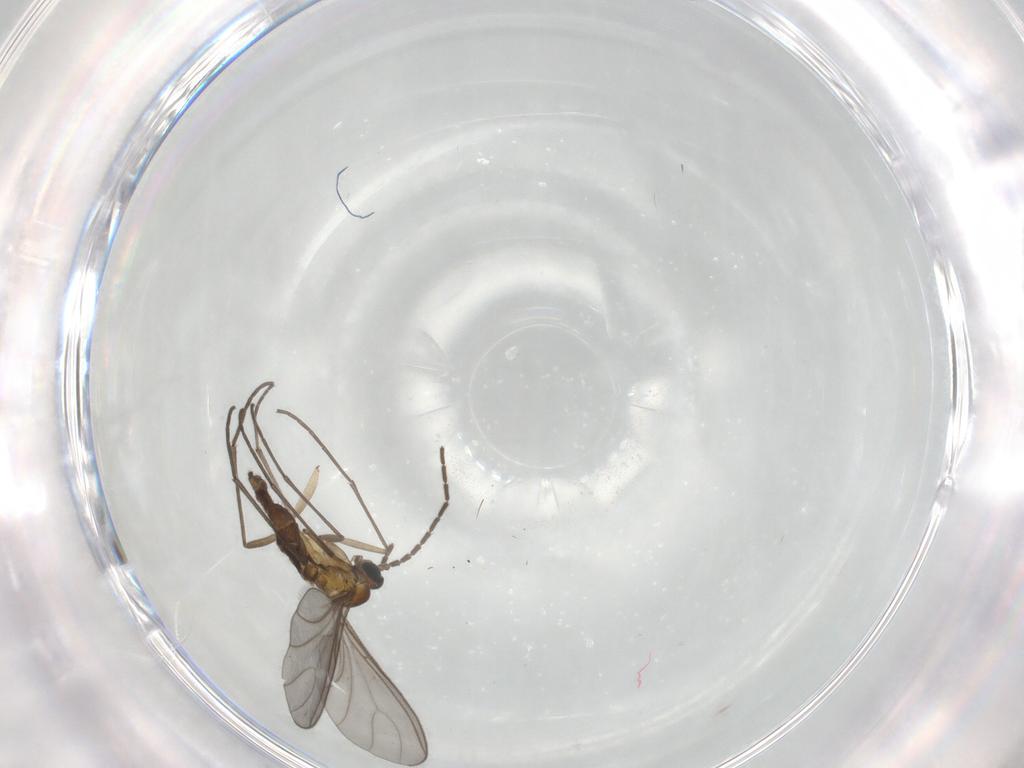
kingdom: Animalia
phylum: Arthropoda
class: Insecta
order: Diptera
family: Sciaridae
